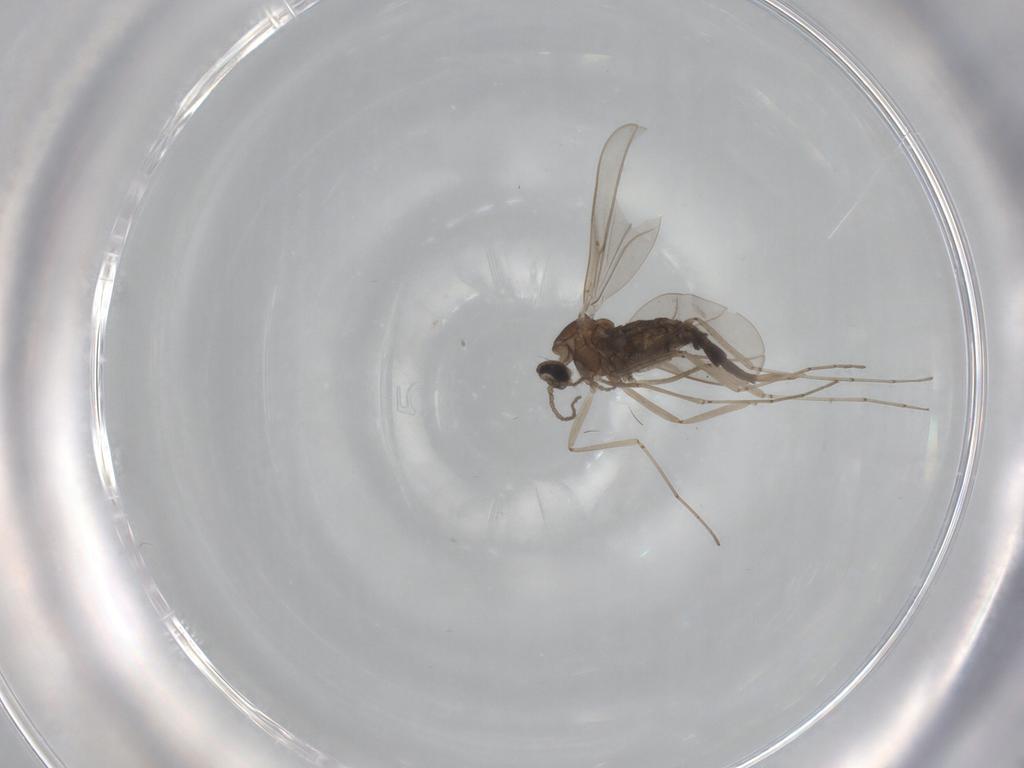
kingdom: Animalia
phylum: Arthropoda
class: Insecta
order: Diptera
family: Cecidomyiidae
